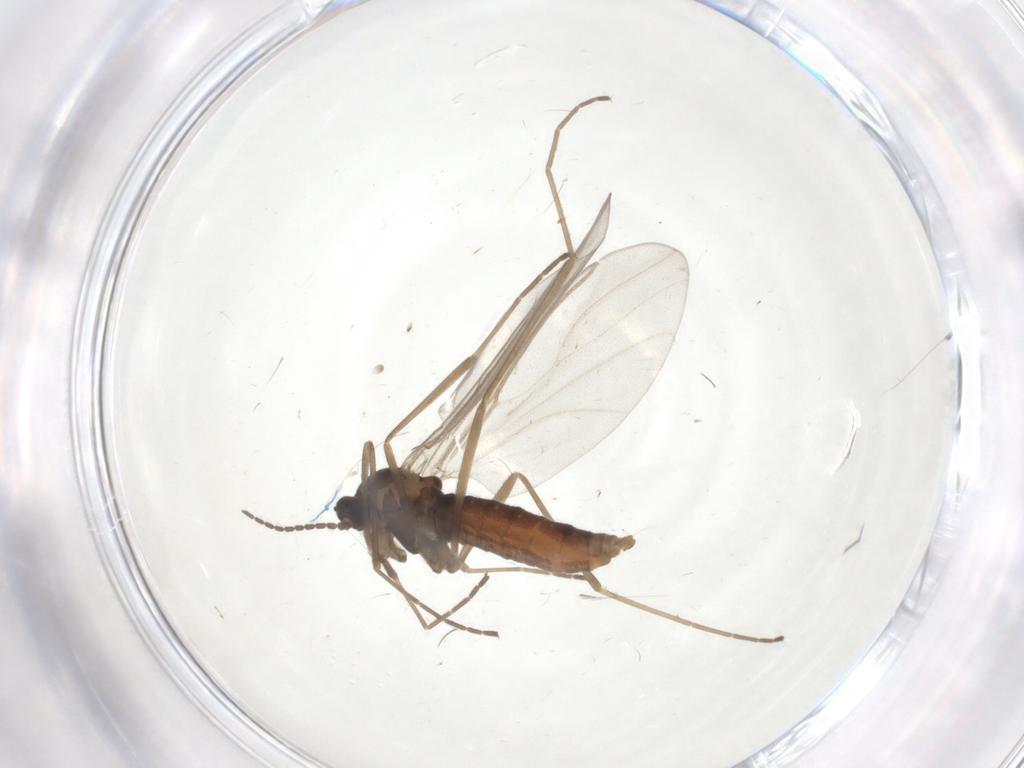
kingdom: Animalia
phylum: Arthropoda
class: Insecta
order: Diptera
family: Cecidomyiidae
